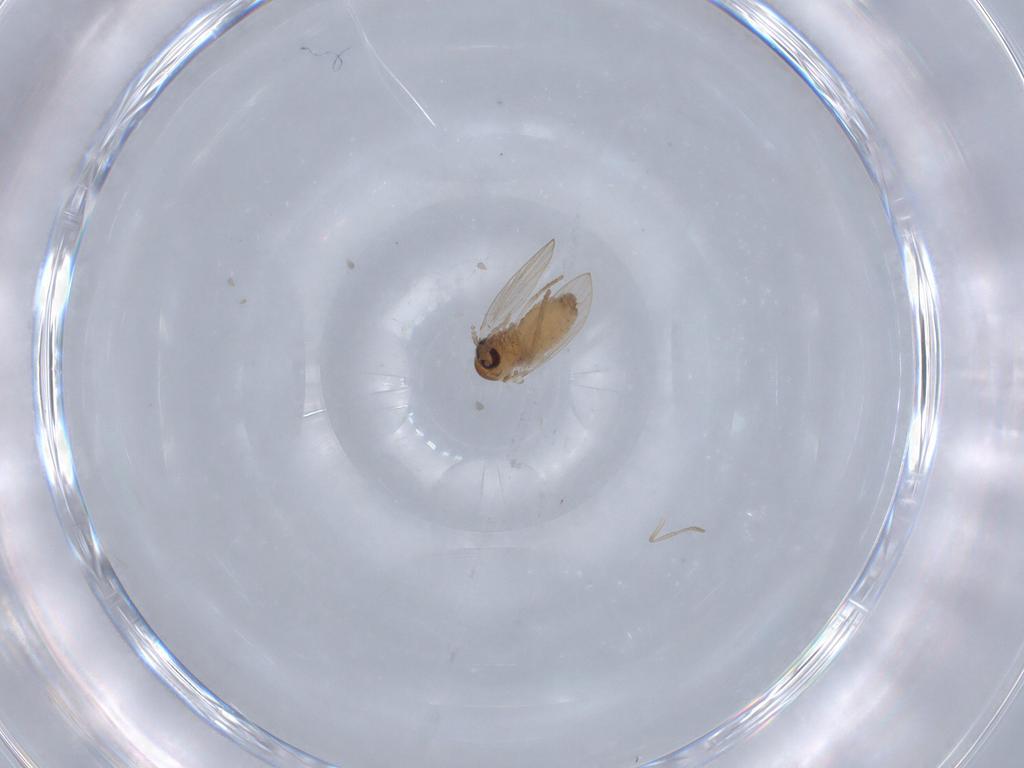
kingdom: Animalia
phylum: Arthropoda
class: Insecta
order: Diptera
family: Psychodidae
